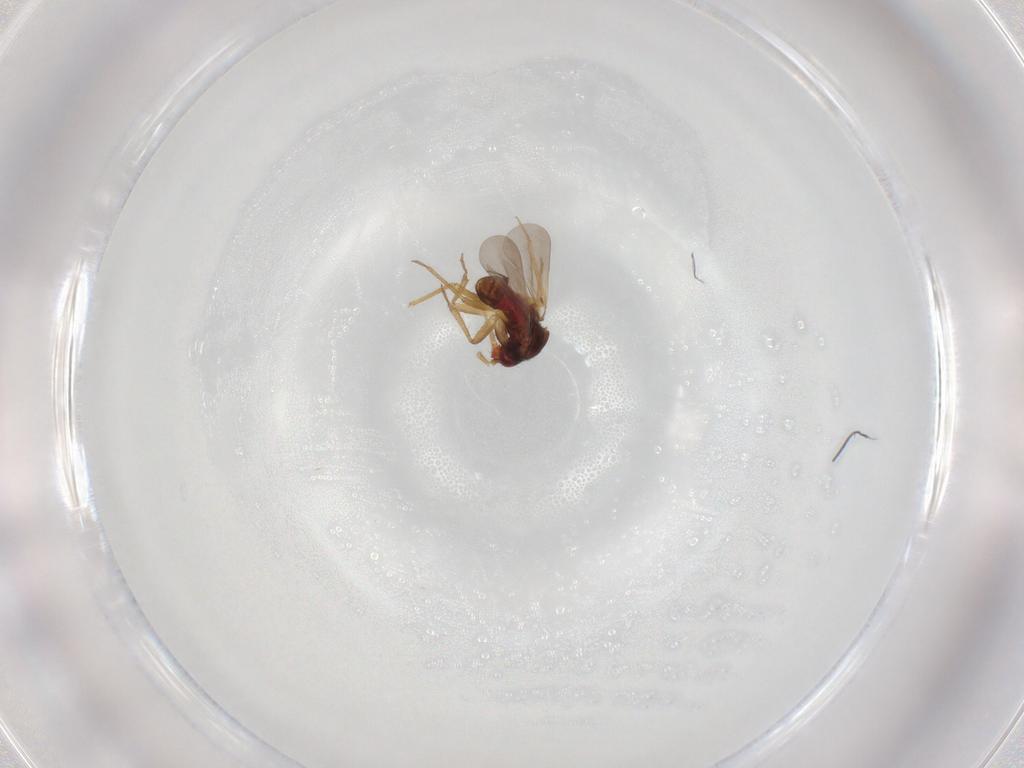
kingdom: Animalia
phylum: Arthropoda
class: Insecta
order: Hemiptera
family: Ceratocombidae
